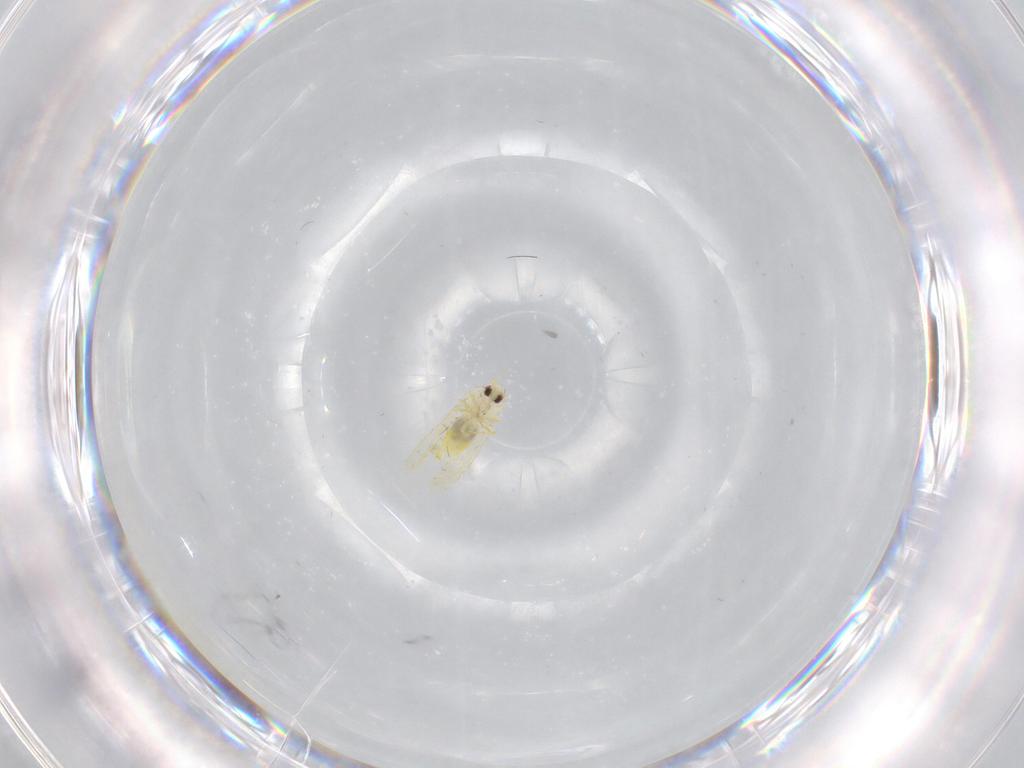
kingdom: Animalia
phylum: Arthropoda
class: Insecta
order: Hemiptera
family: Aleyrodidae
